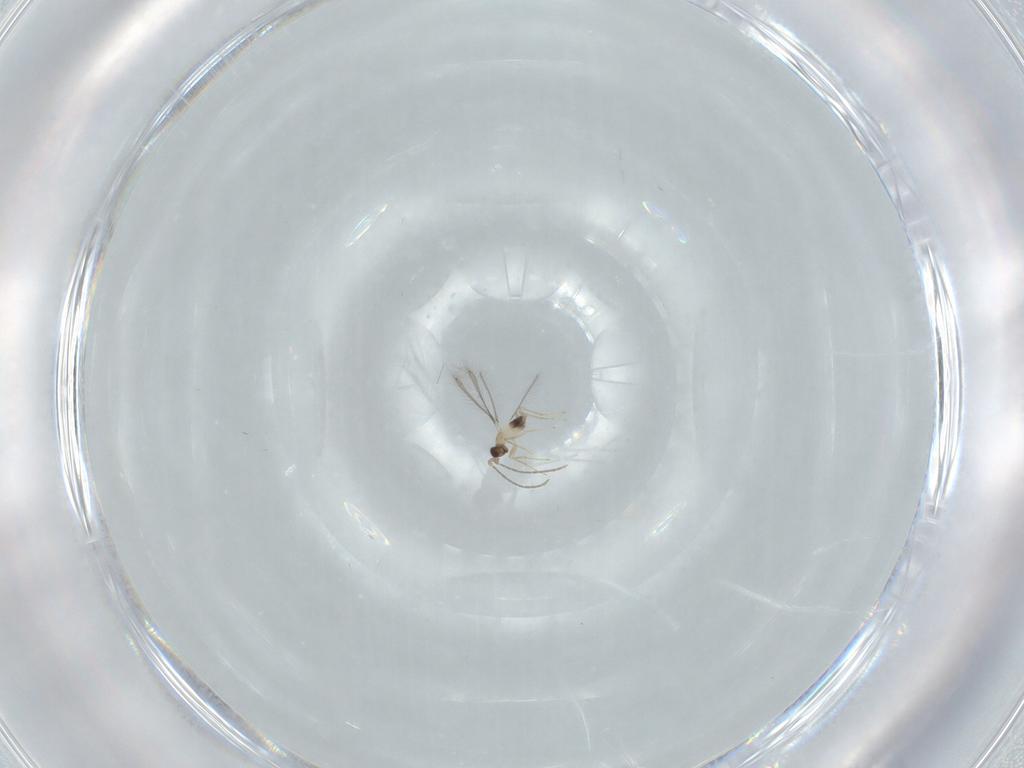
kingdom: Animalia
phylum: Arthropoda
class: Insecta
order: Hymenoptera
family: Mymaridae
